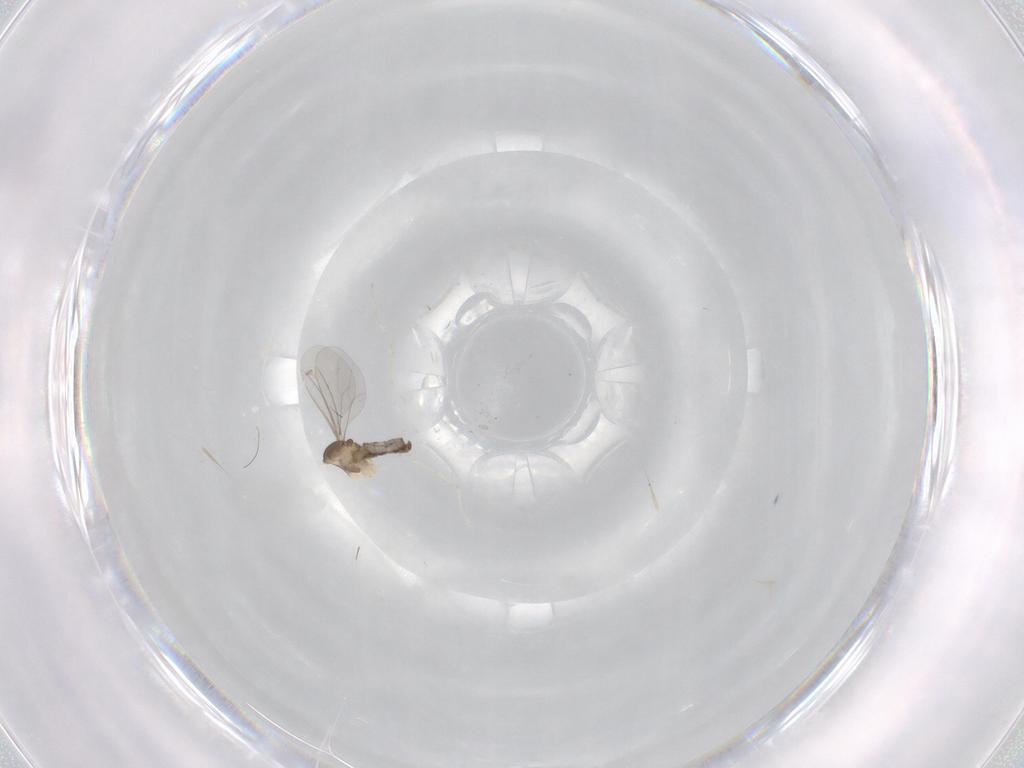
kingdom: Animalia
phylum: Arthropoda
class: Insecta
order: Diptera
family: Cecidomyiidae
